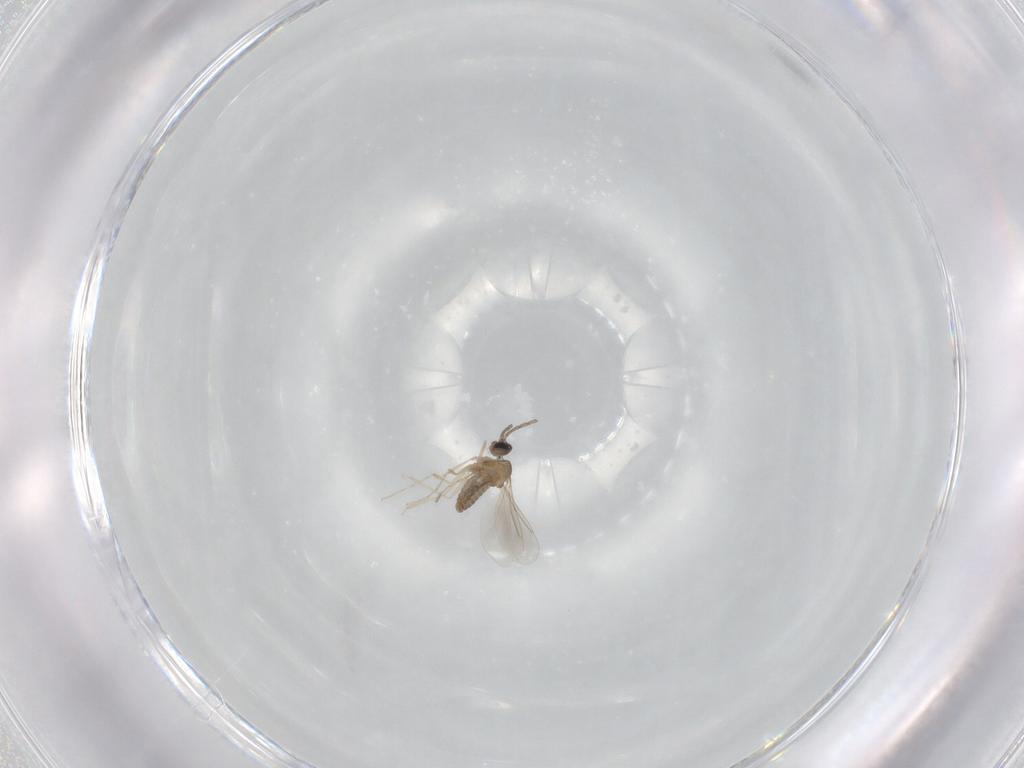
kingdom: Animalia
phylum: Arthropoda
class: Insecta
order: Diptera
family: Cecidomyiidae
